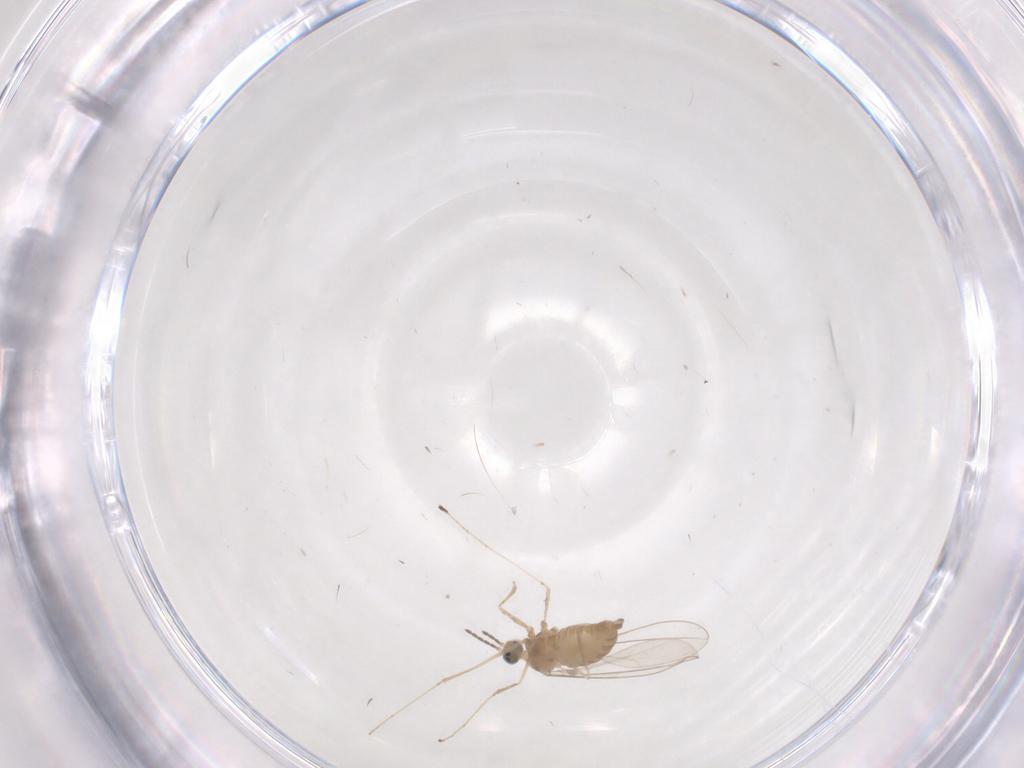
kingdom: Animalia
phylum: Arthropoda
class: Insecta
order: Diptera
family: Cecidomyiidae
